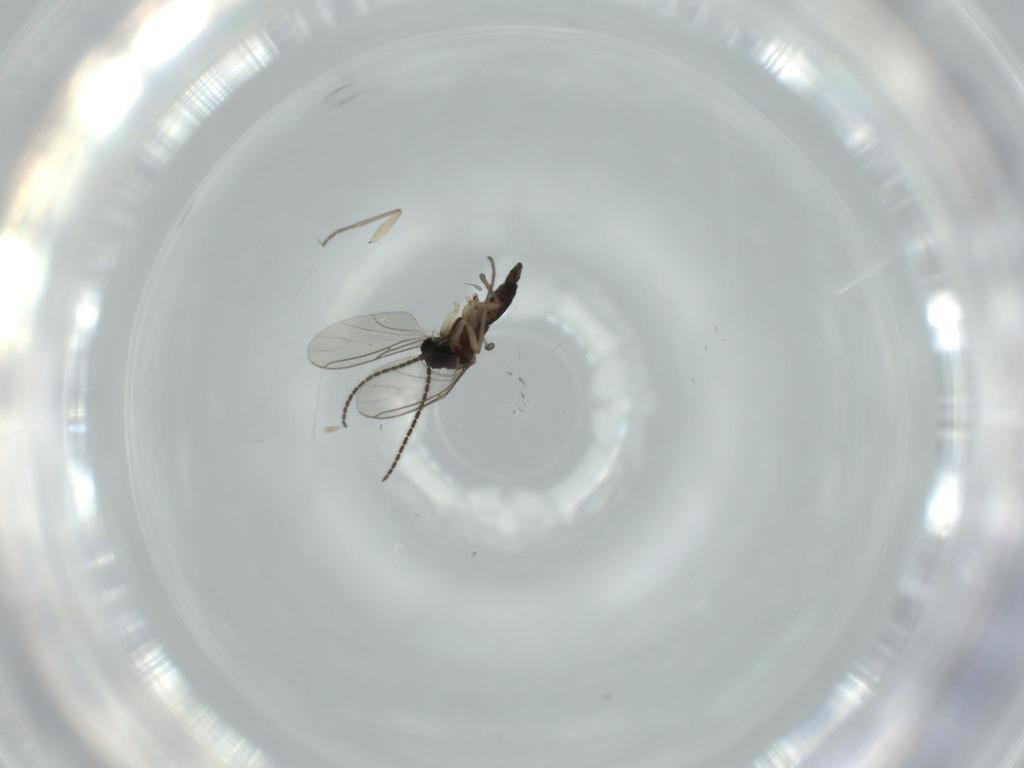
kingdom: Animalia
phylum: Arthropoda
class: Insecta
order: Diptera
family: Sciaridae
